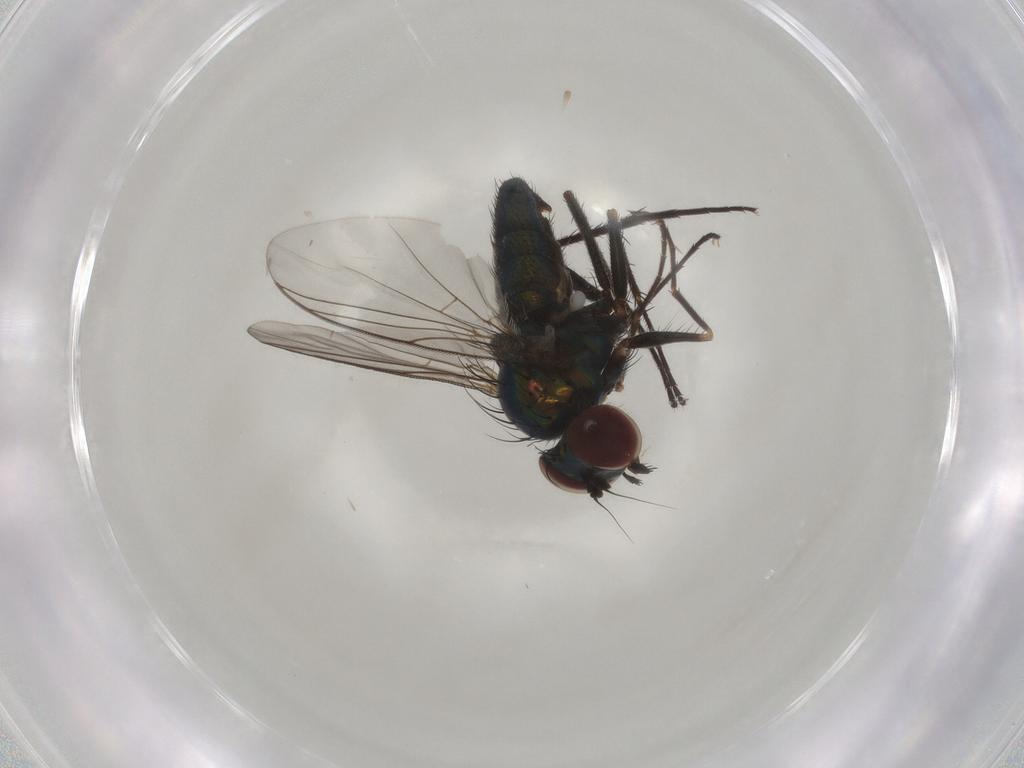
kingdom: Animalia
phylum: Arthropoda
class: Insecta
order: Diptera
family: Dolichopodidae
